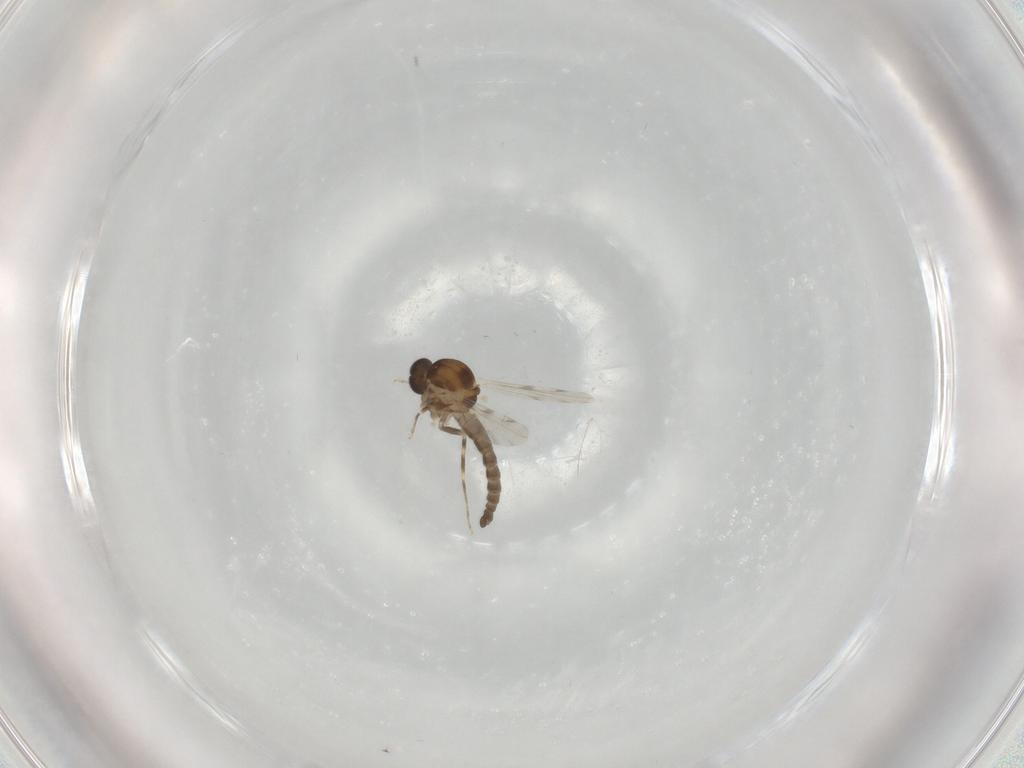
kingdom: Animalia
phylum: Arthropoda
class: Insecta
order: Diptera
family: Ceratopogonidae
